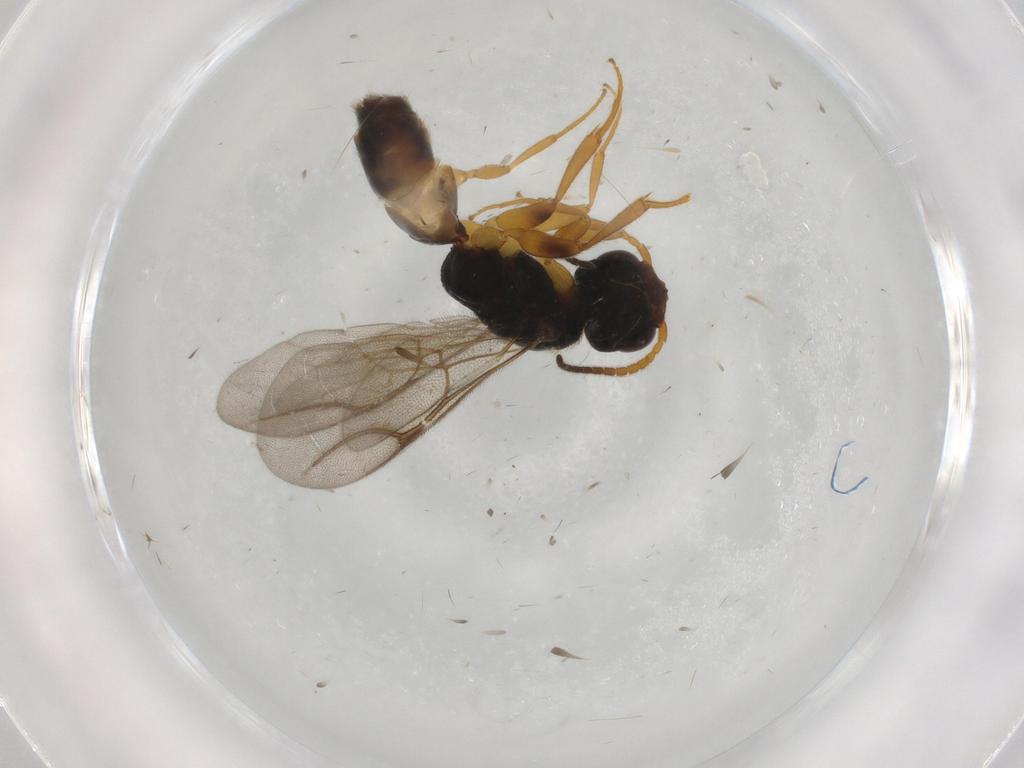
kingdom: Animalia
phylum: Arthropoda
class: Insecta
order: Hymenoptera
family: Bethylidae
